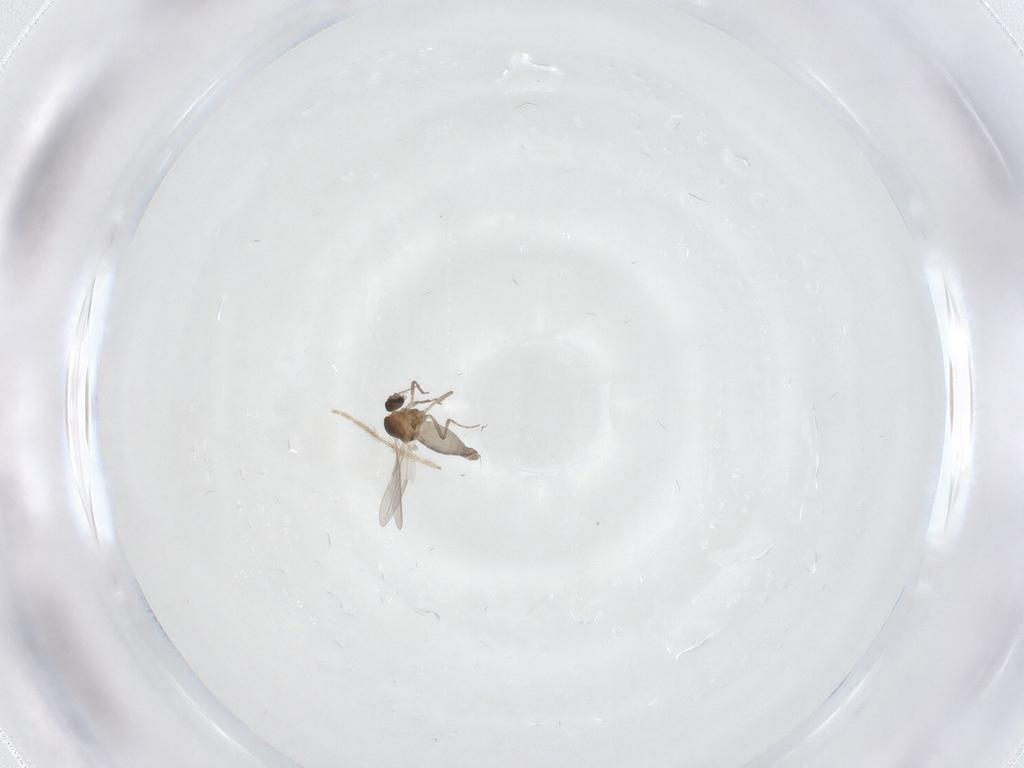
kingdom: Animalia
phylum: Arthropoda
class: Insecta
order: Diptera
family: Chironomidae
